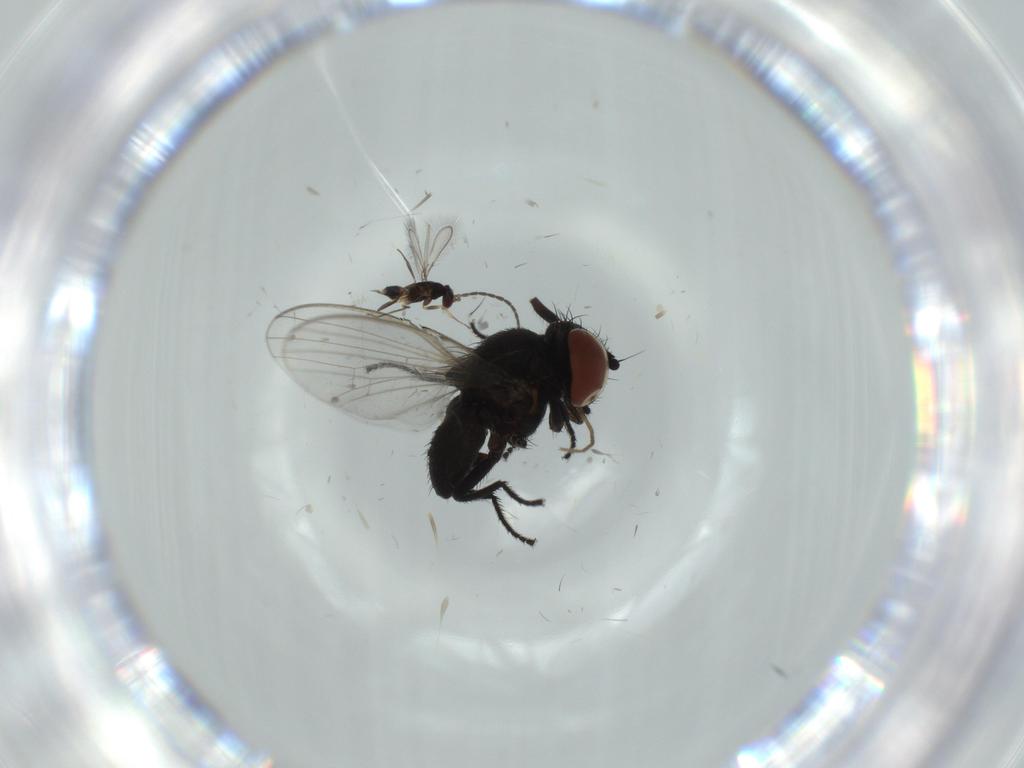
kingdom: Animalia
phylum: Arthropoda
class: Insecta
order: Diptera
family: Milichiidae
